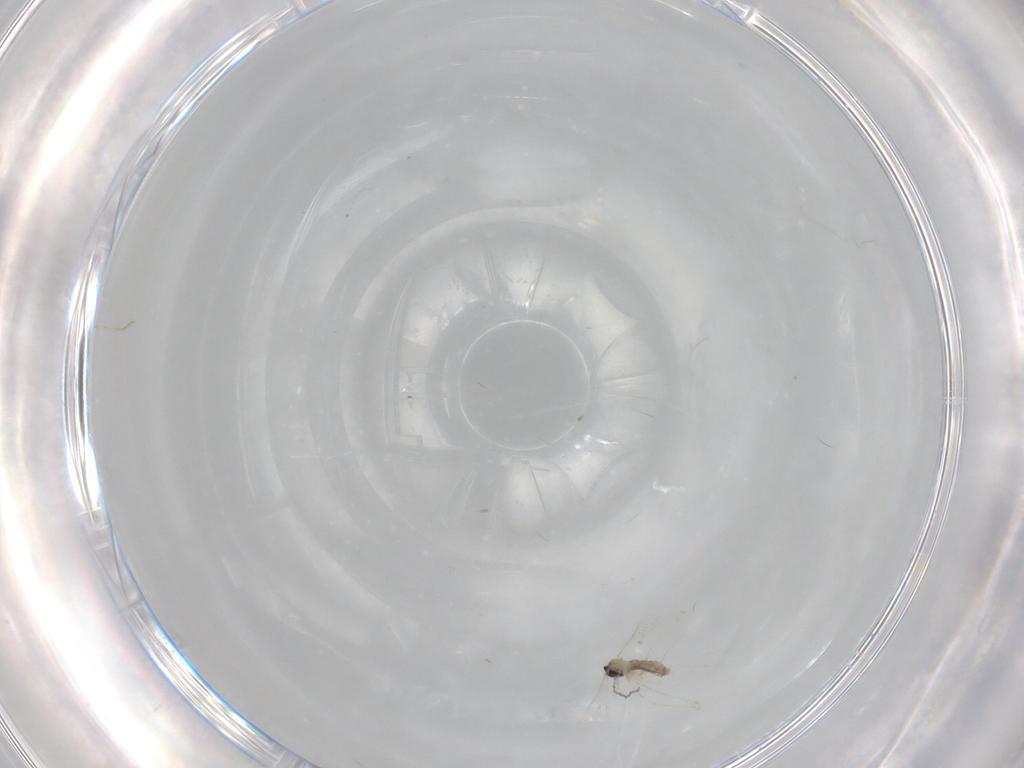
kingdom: Animalia
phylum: Arthropoda
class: Insecta
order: Diptera
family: Cecidomyiidae
